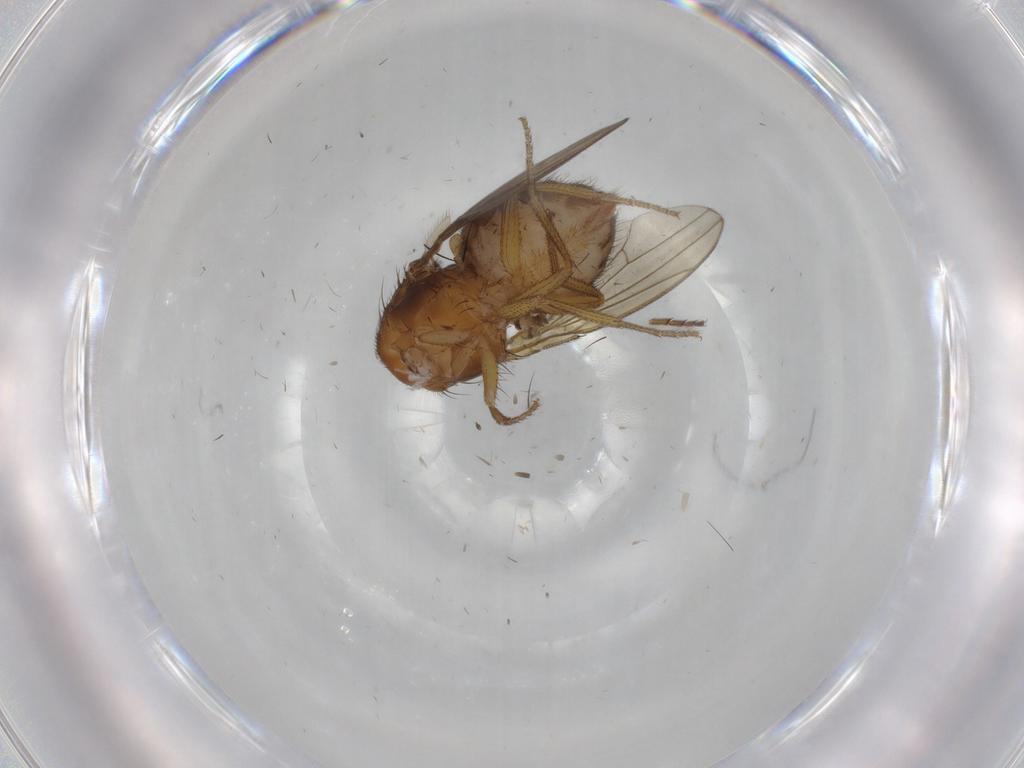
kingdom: Animalia
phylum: Arthropoda
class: Insecta
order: Diptera
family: Drosophilidae
